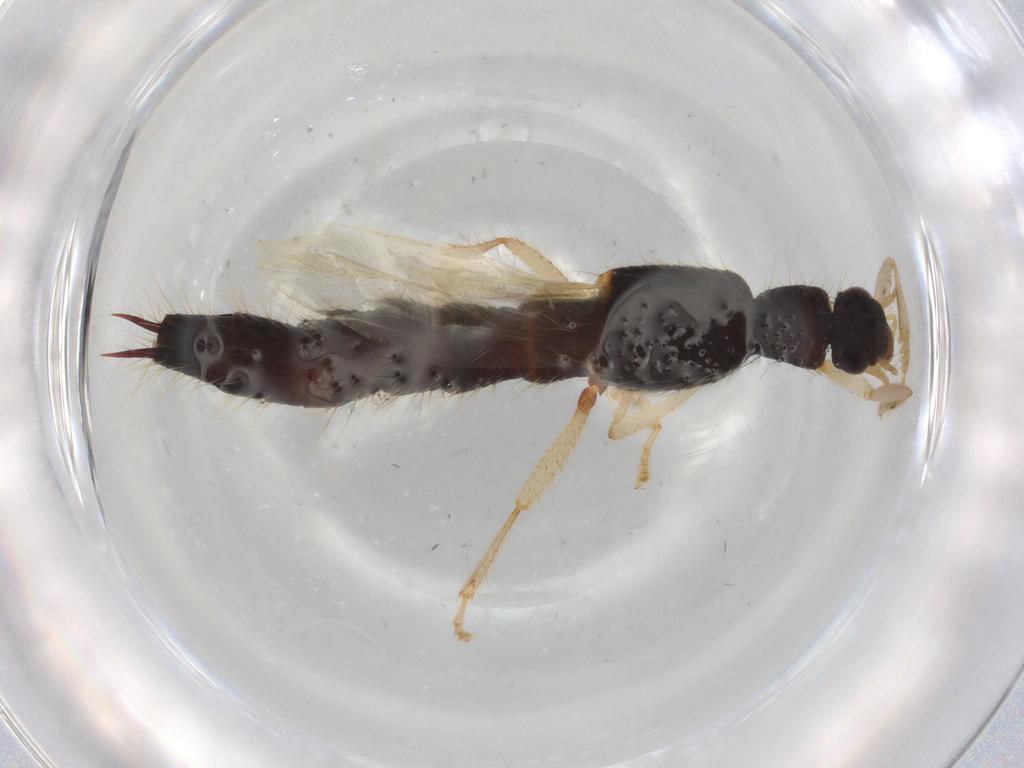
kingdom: Animalia
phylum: Arthropoda
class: Insecta
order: Coleoptera
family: Staphylinidae
